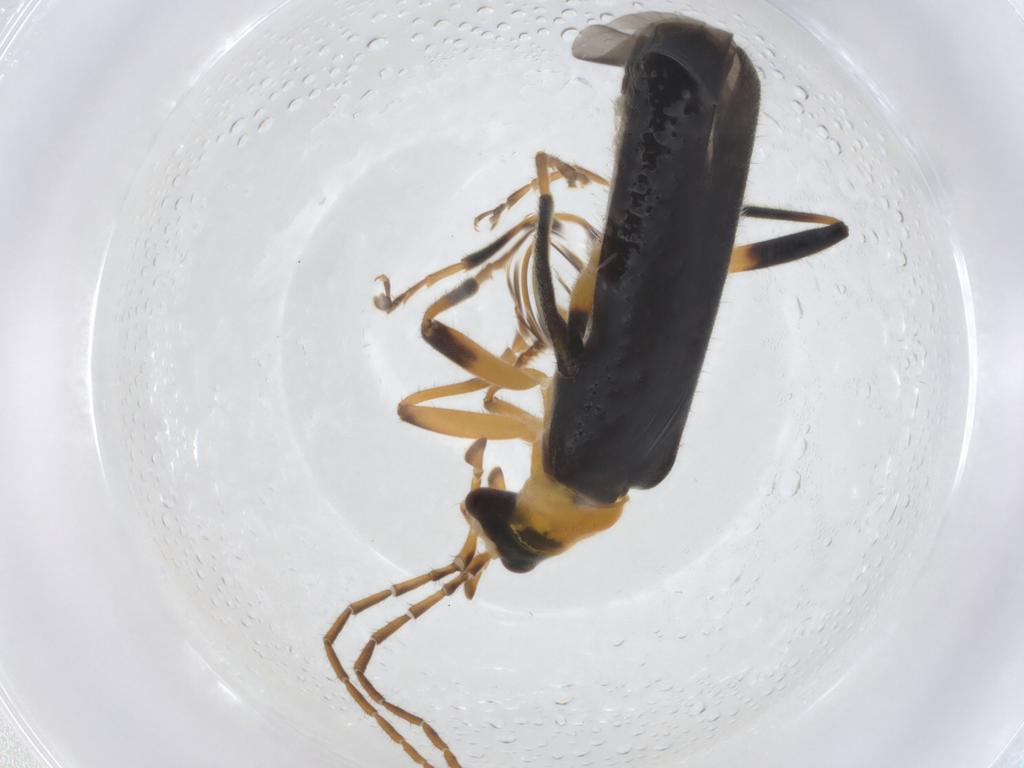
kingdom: Animalia
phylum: Arthropoda
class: Insecta
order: Coleoptera
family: Cantharidae
